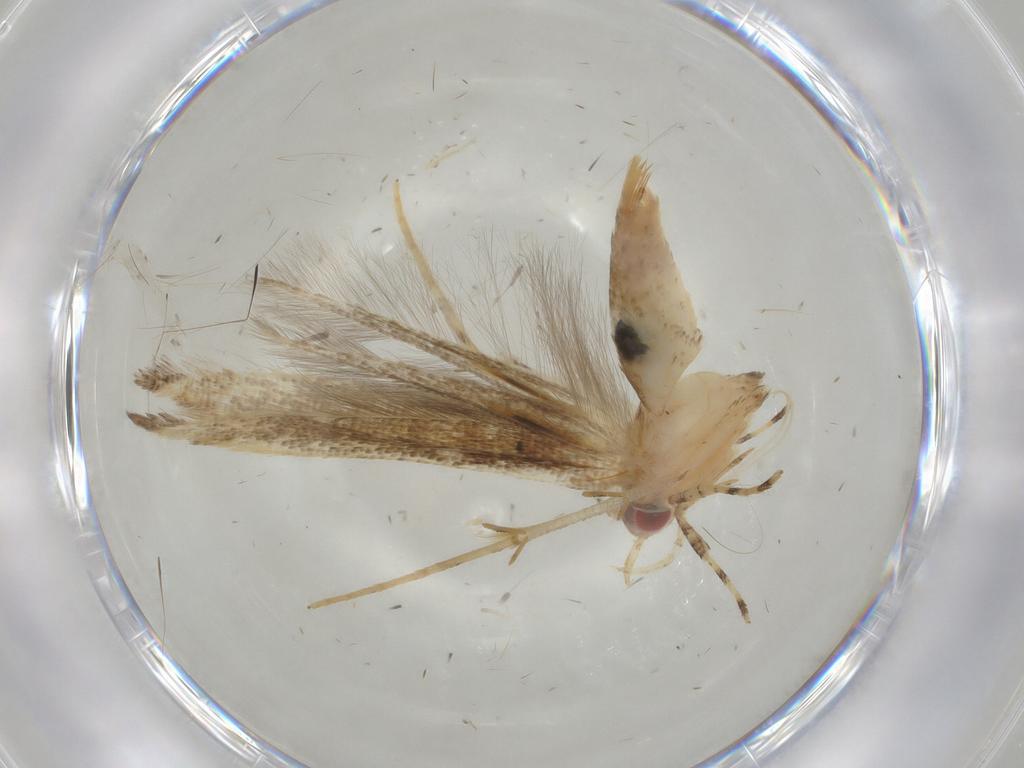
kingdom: Animalia
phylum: Arthropoda
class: Insecta
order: Lepidoptera
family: Cosmopterigidae
